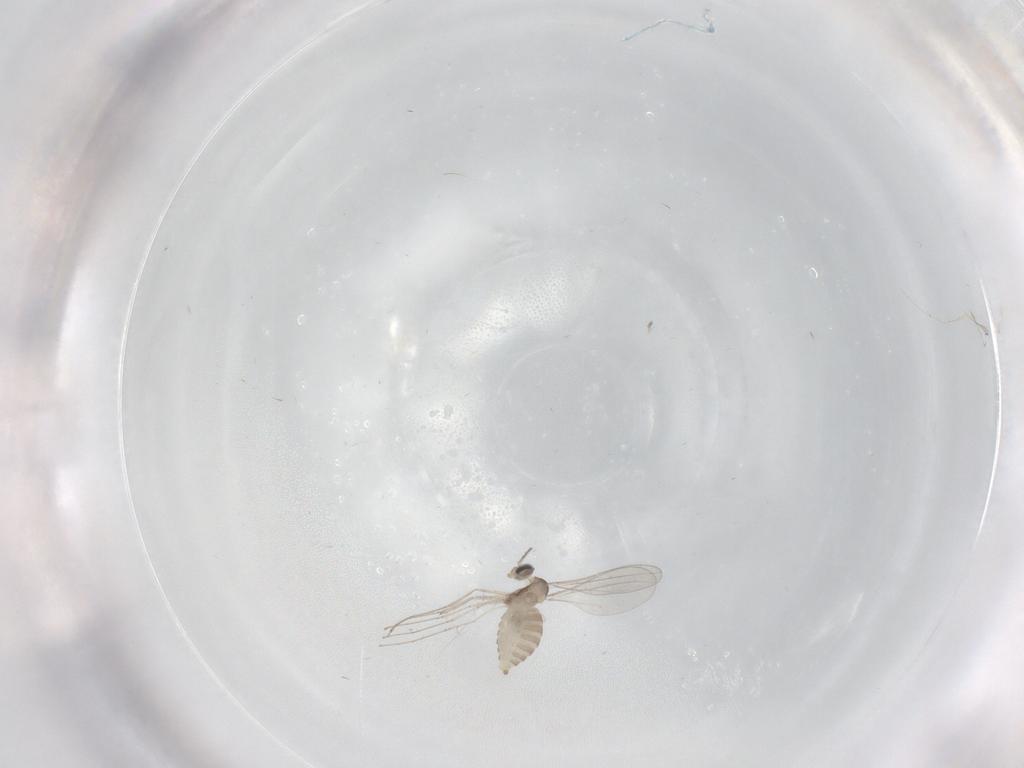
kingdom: Animalia
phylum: Arthropoda
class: Insecta
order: Diptera
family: Cecidomyiidae
